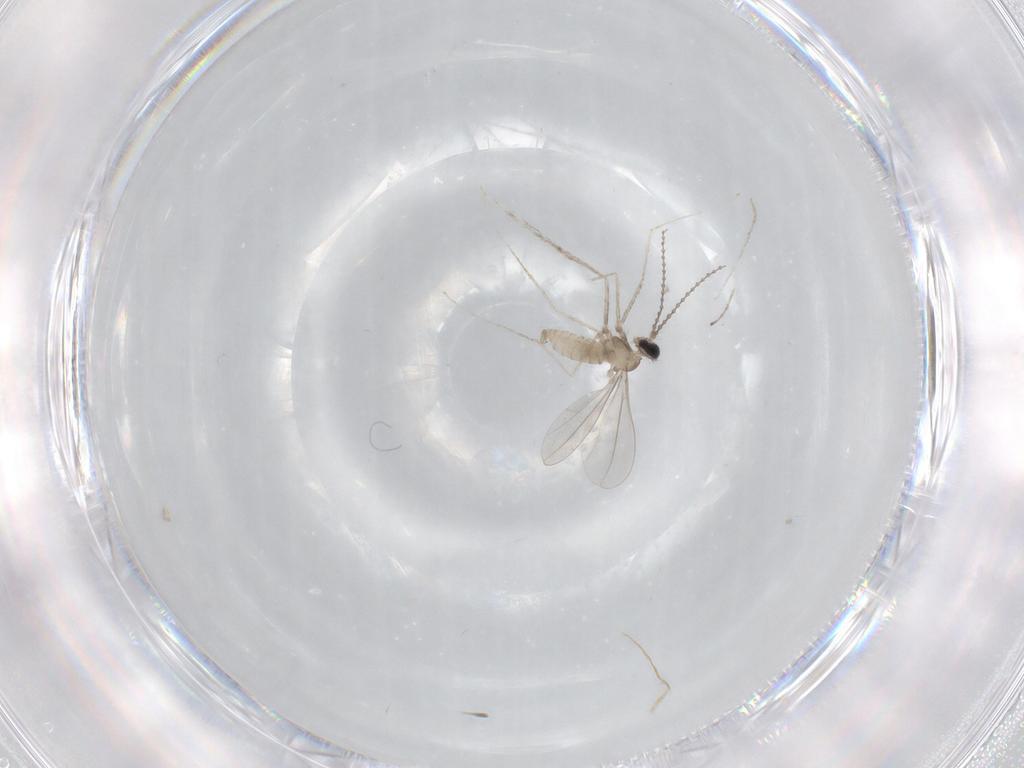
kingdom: Animalia
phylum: Arthropoda
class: Insecta
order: Diptera
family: Cecidomyiidae
